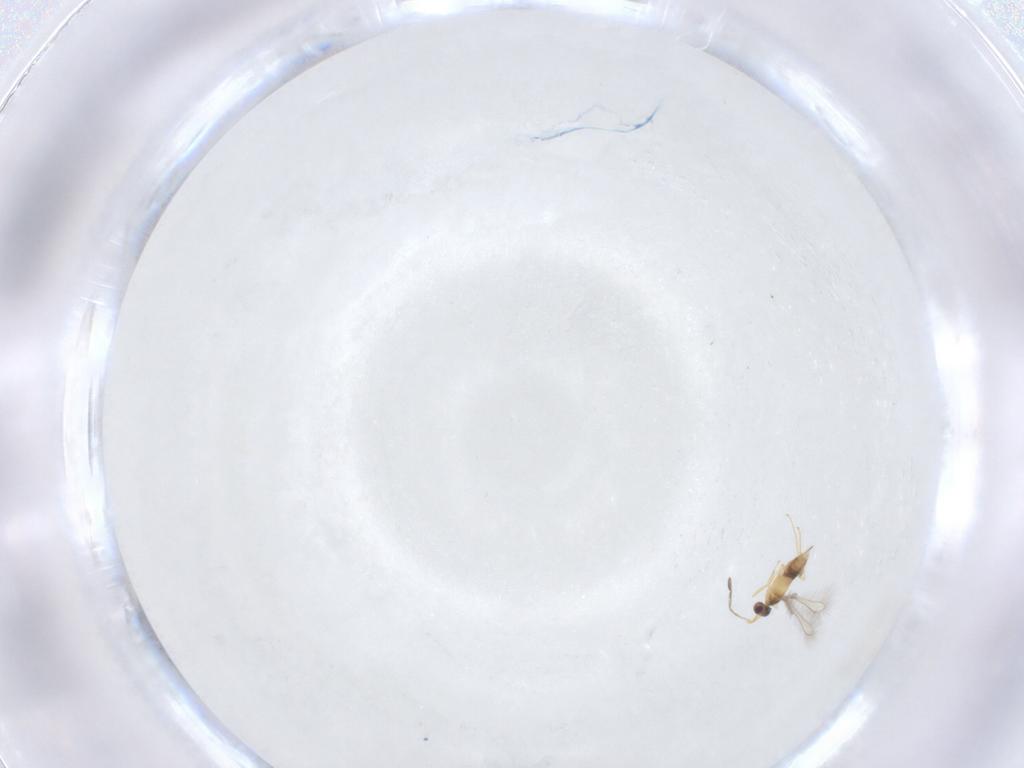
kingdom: Animalia
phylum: Arthropoda
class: Insecta
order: Hymenoptera
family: Mymaridae
